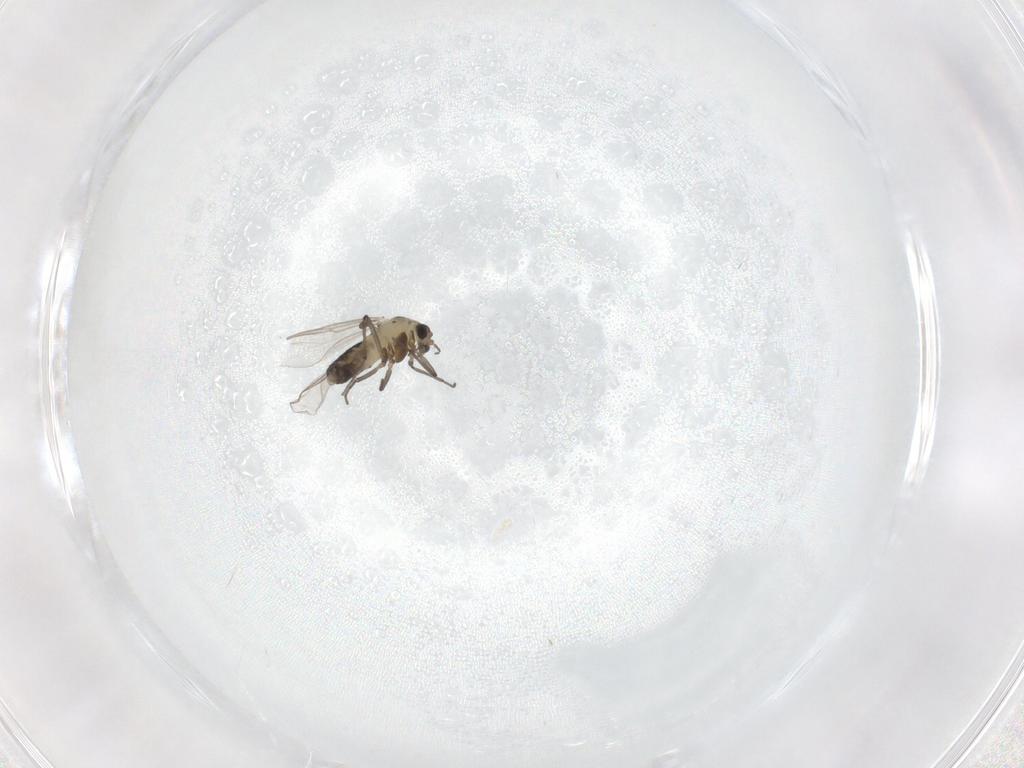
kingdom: Animalia
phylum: Arthropoda
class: Insecta
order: Diptera
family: Chironomidae
